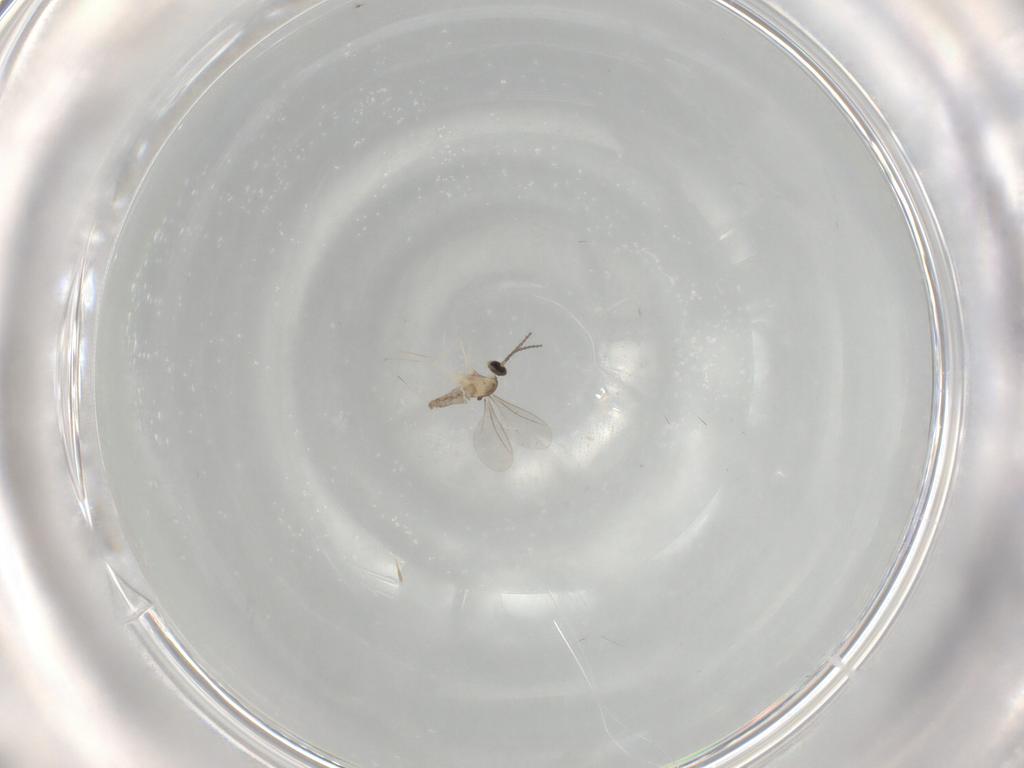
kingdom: Animalia
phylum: Arthropoda
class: Insecta
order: Diptera
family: Cecidomyiidae
